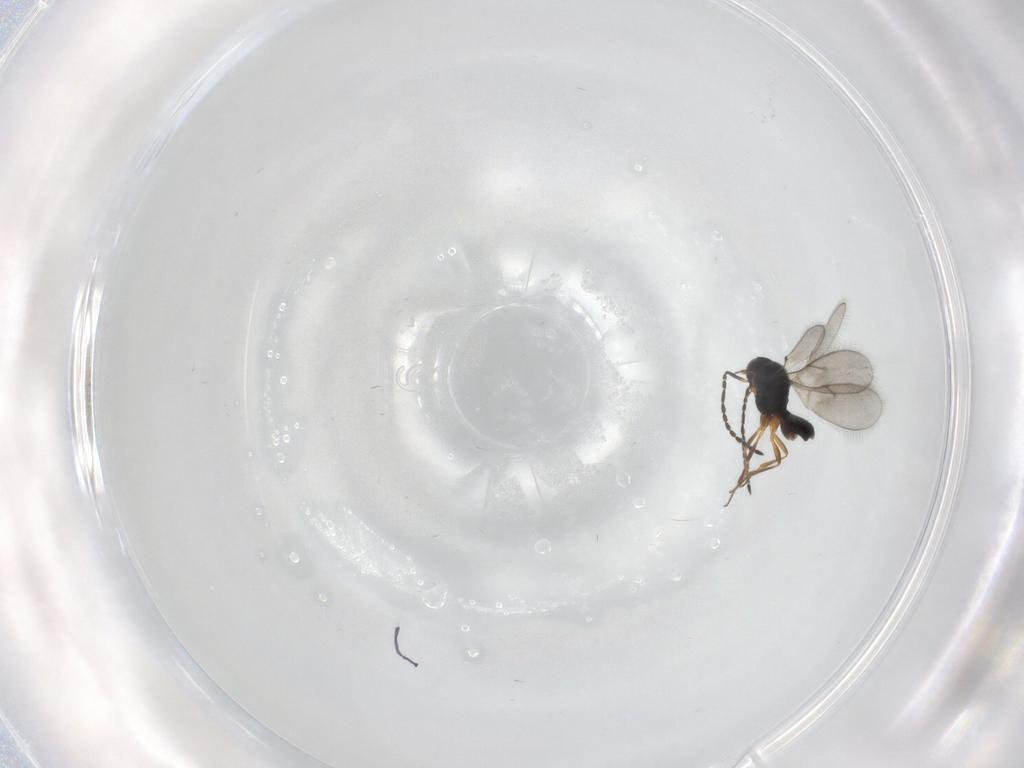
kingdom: Animalia
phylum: Arthropoda
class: Insecta
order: Hymenoptera
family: Scelionidae
